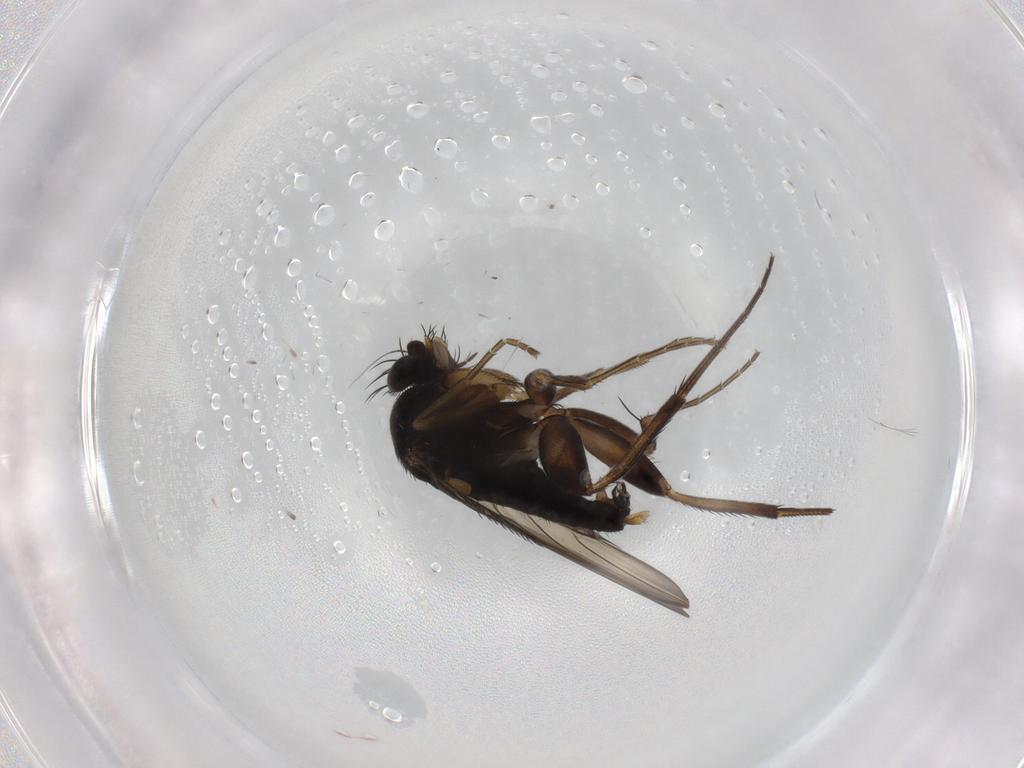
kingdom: Animalia
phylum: Arthropoda
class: Insecta
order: Diptera
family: Phoridae
